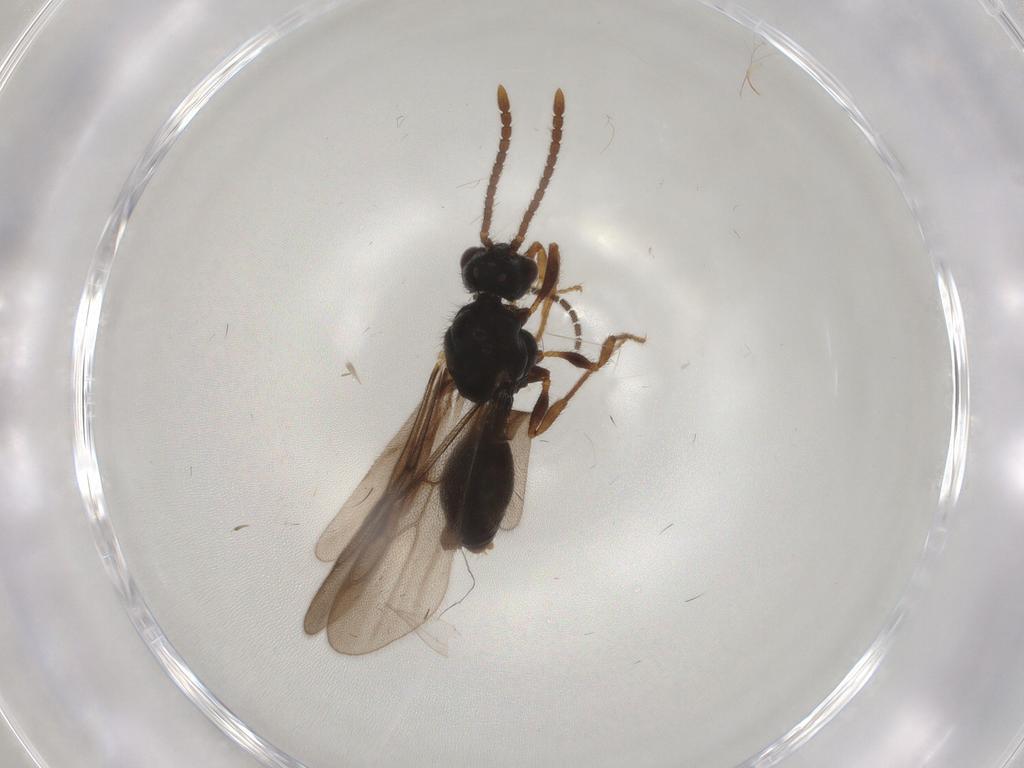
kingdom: Animalia
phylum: Arthropoda
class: Insecta
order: Hymenoptera
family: Formicidae
